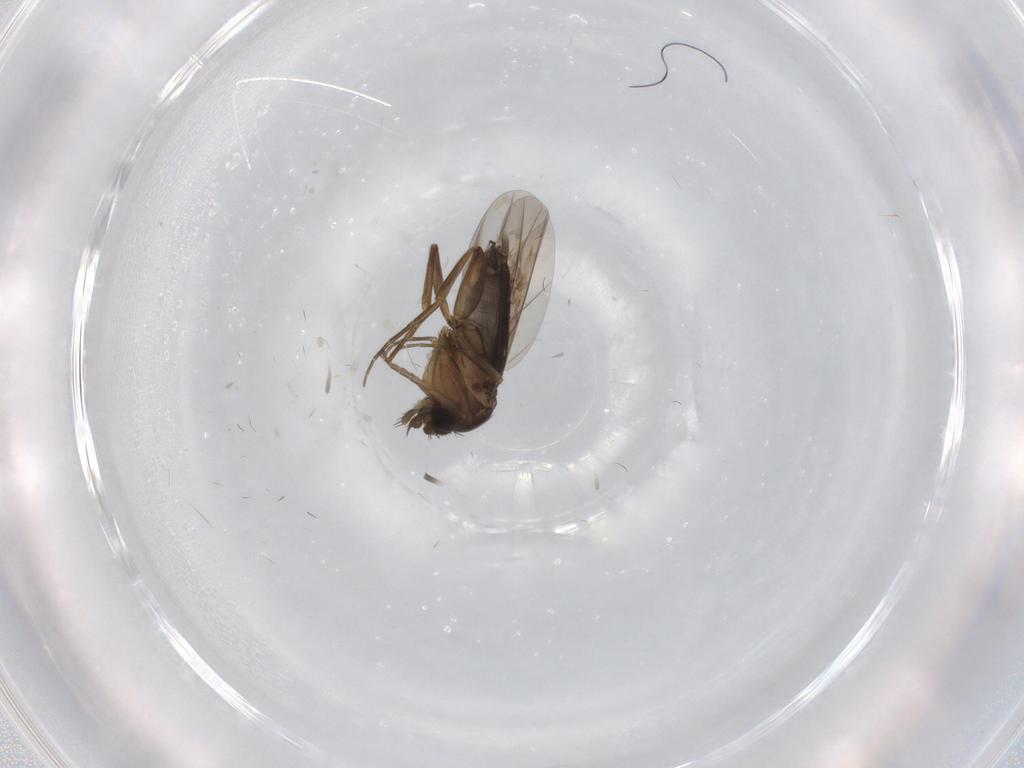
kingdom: Animalia
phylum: Arthropoda
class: Insecta
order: Diptera
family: Phoridae
